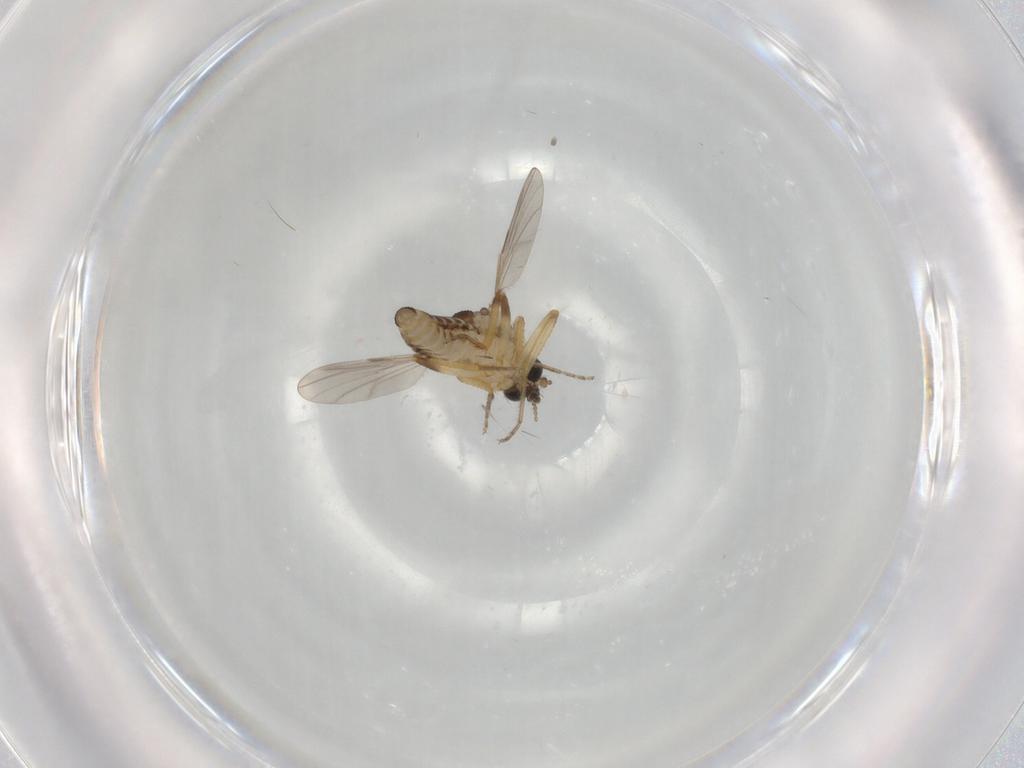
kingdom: Animalia
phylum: Arthropoda
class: Insecta
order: Diptera
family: Ceratopogonidae
